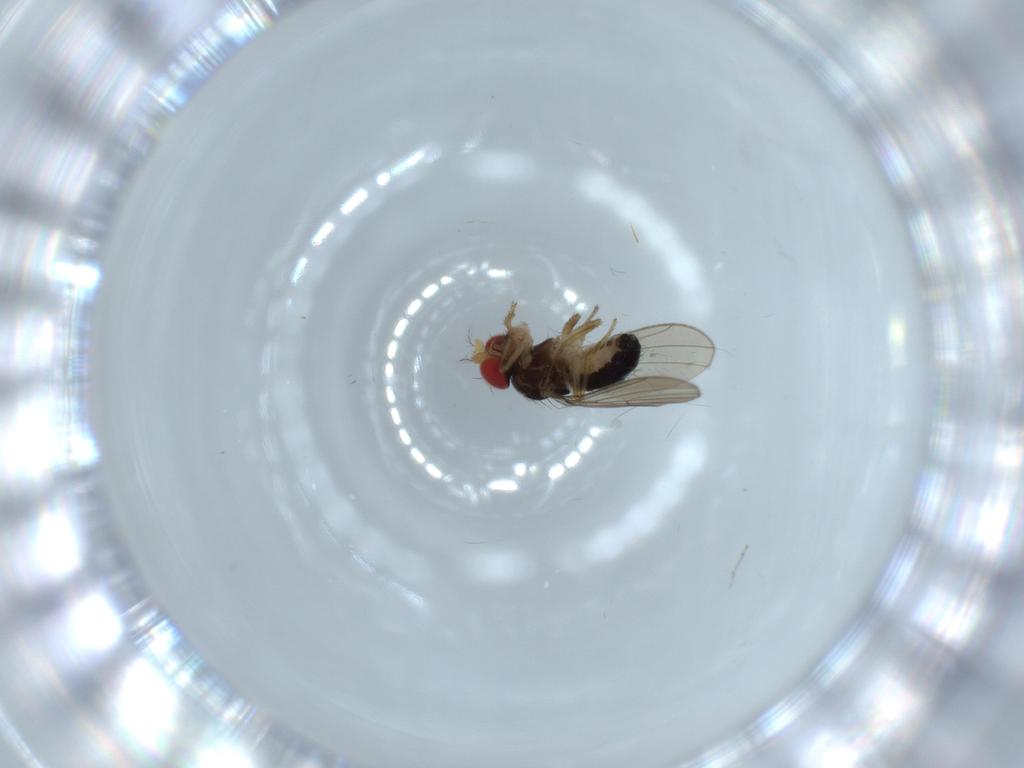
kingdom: Animalia
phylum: Arthropoda
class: Insecta
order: Diptera
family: Drosophilidae
